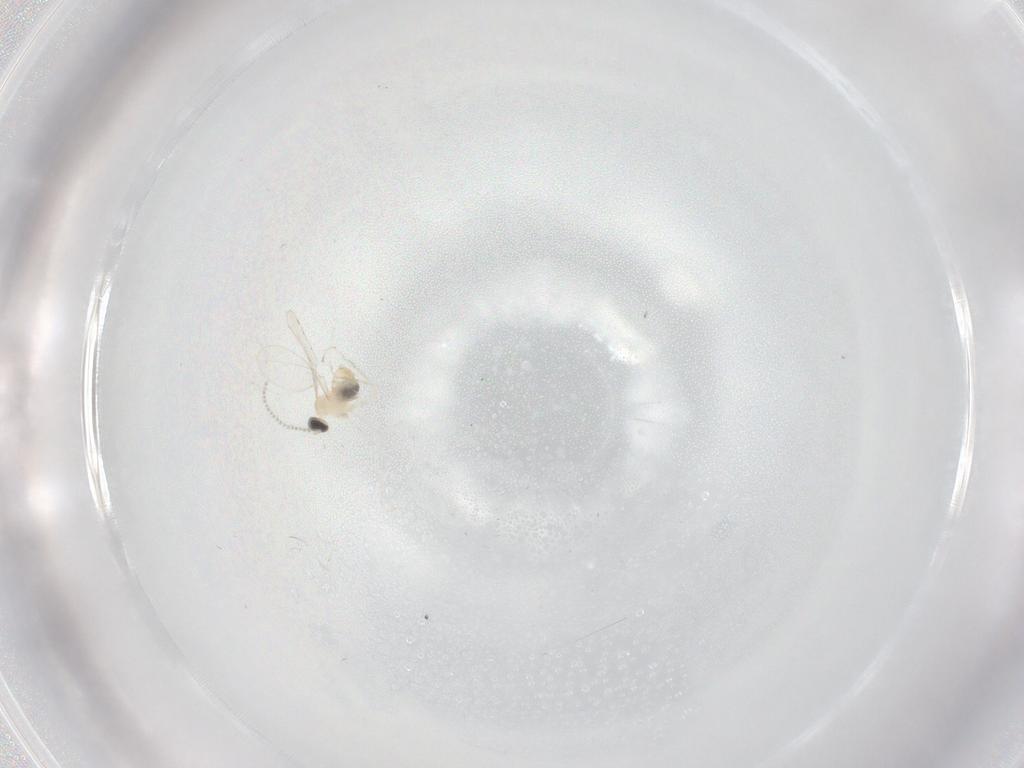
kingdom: Animalia
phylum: Arthropoda
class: Insecta
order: Diptera
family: Cecidomyiidae
